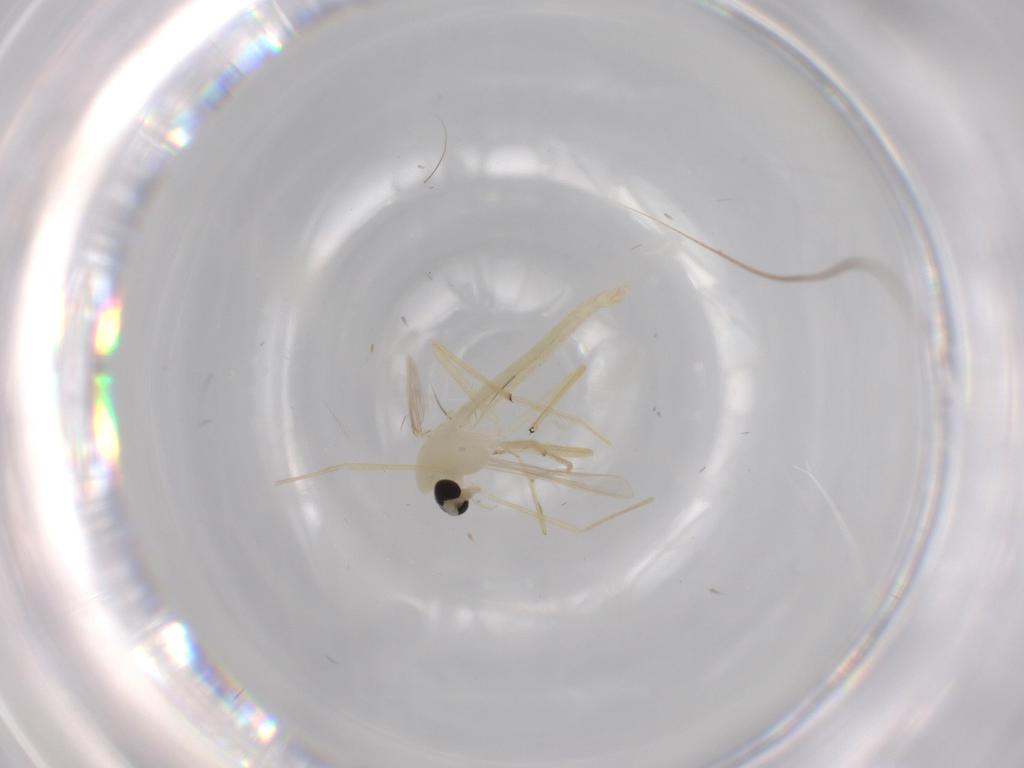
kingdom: Animalia
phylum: Arthropoda
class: Insecta
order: Diptera
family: Chironomidae
